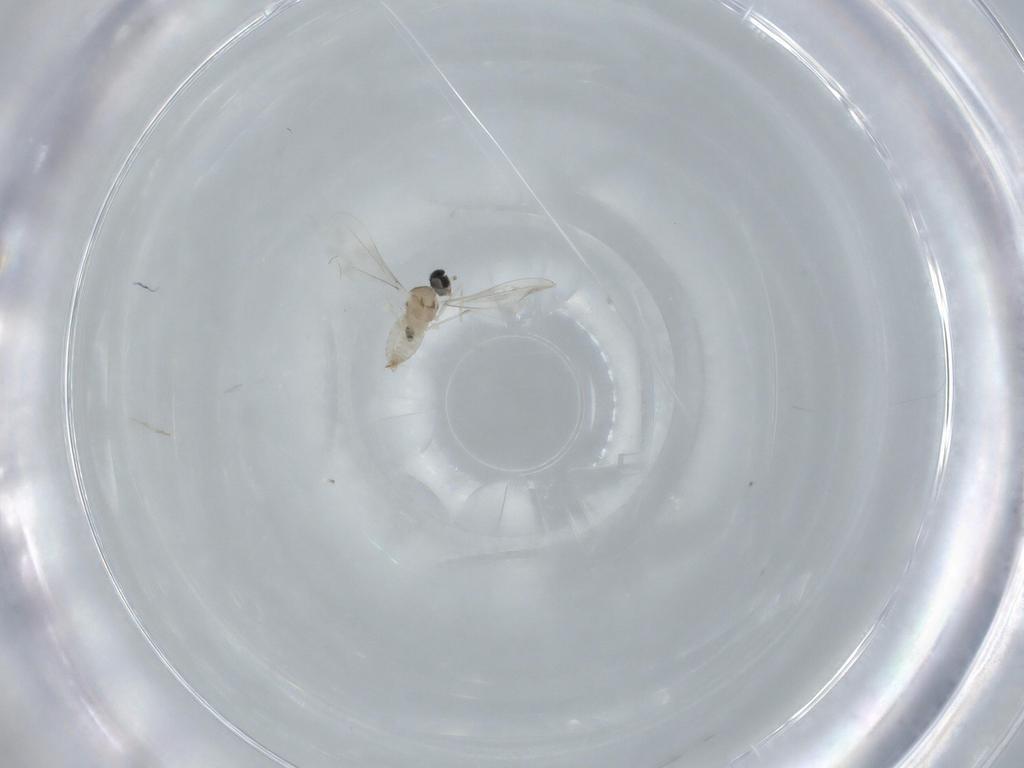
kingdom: Animalia
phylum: Arthropoda
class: Insecta
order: Diptera
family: Cecidomyiidae
